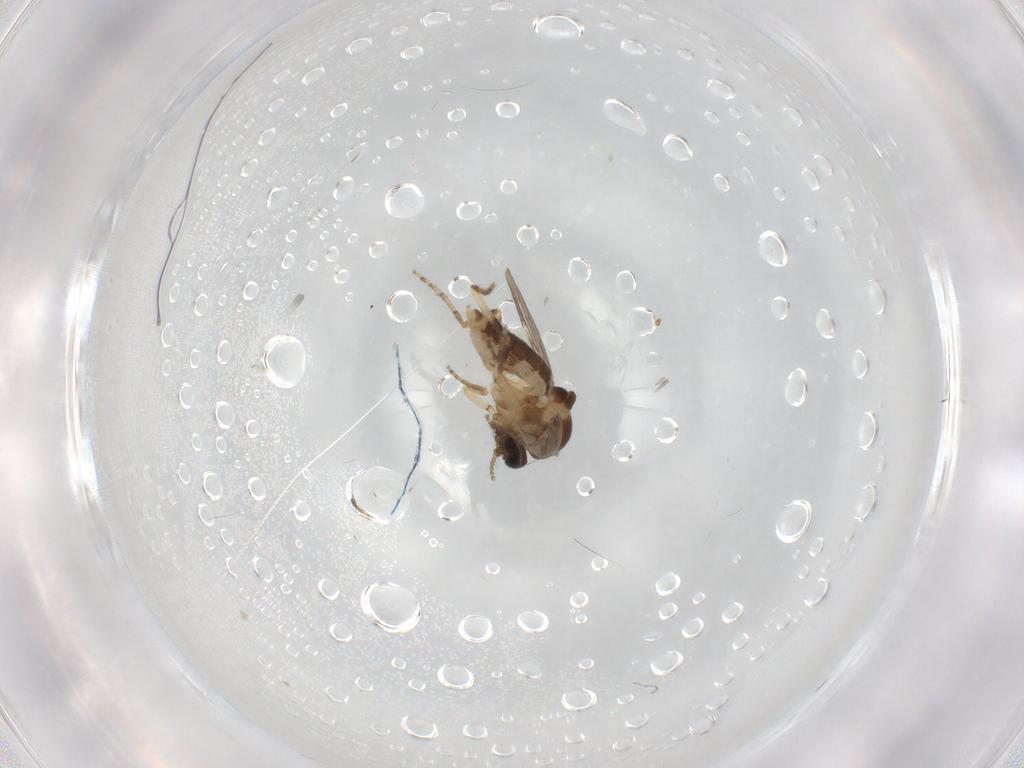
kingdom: Animalia
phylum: Arthropoda
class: Insecta
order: Diptera
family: Ceratopogonidae
